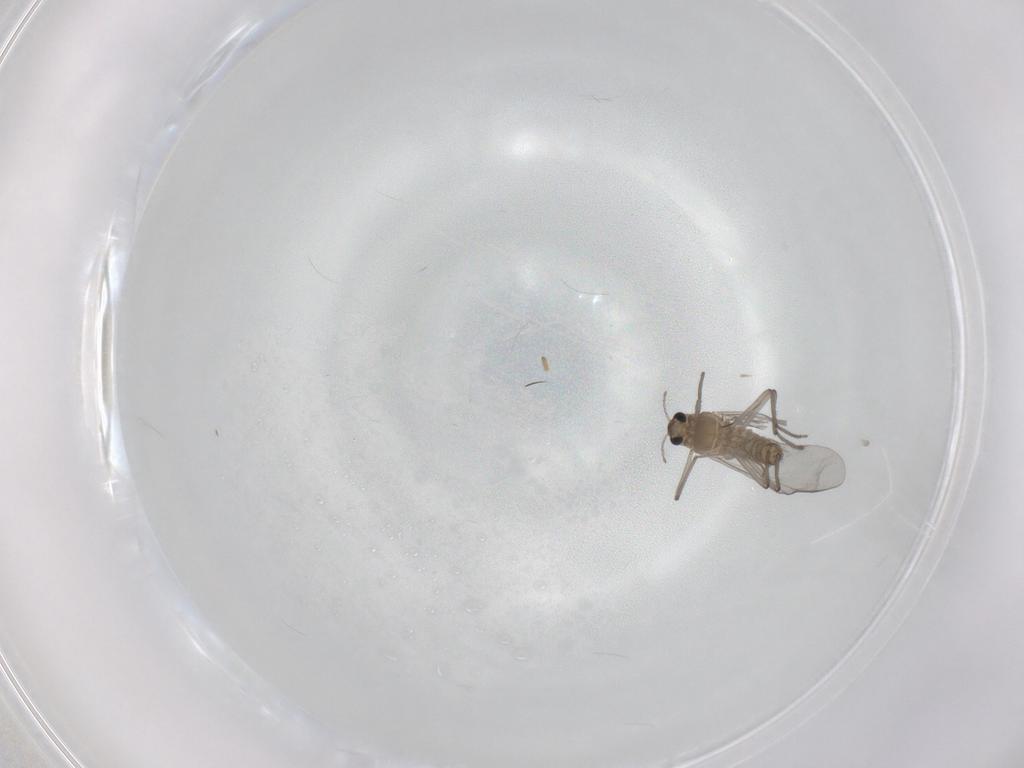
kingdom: Animalia
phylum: Arthropoda
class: Insecta
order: Diptera
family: Chironomidae
